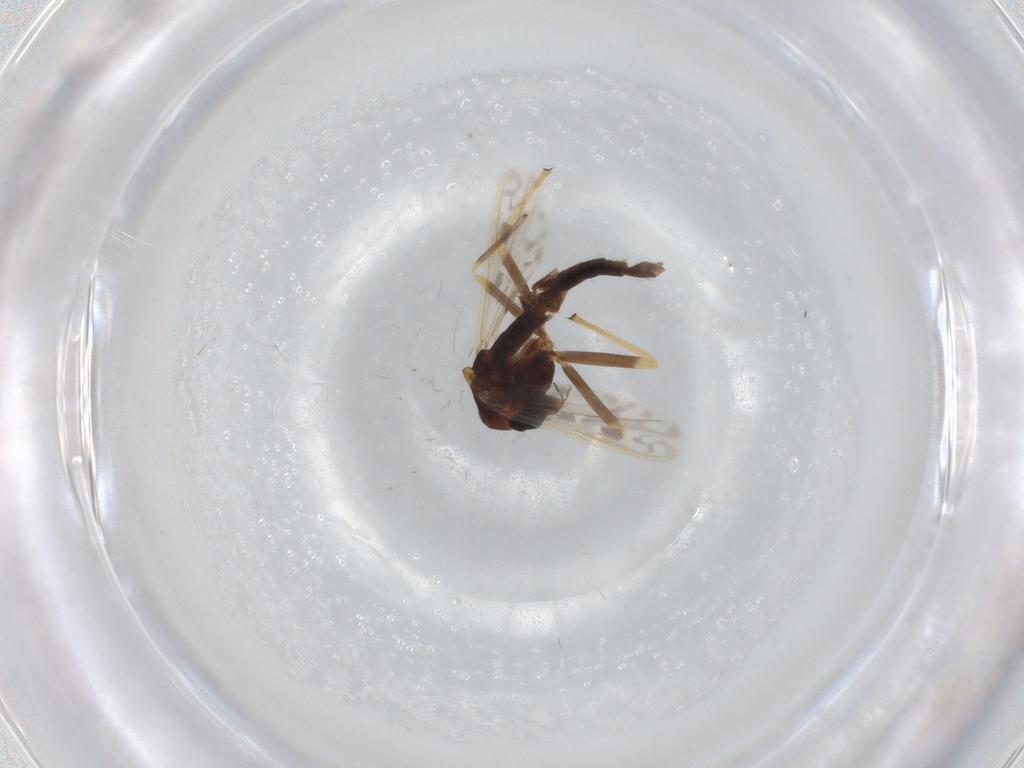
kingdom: Animalia
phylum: Arthropoda
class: Insecta
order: Diptera
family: Chironomidae
